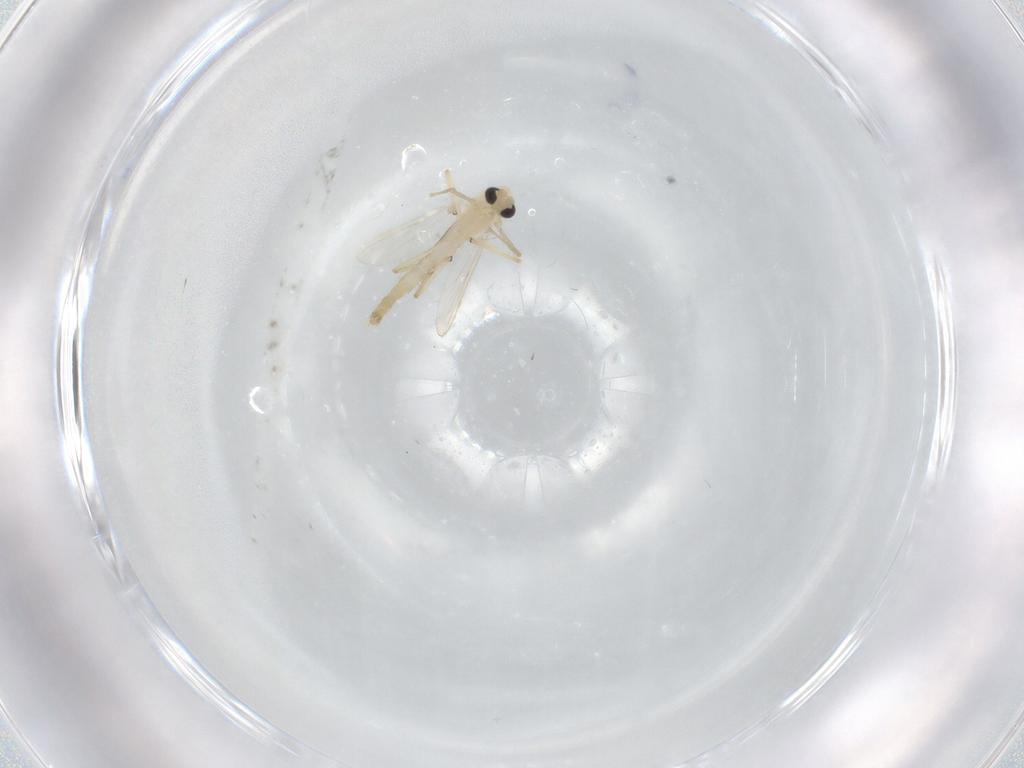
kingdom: Animalia
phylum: Arthropoda
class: Insecta
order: Diptera
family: Chironomidae
